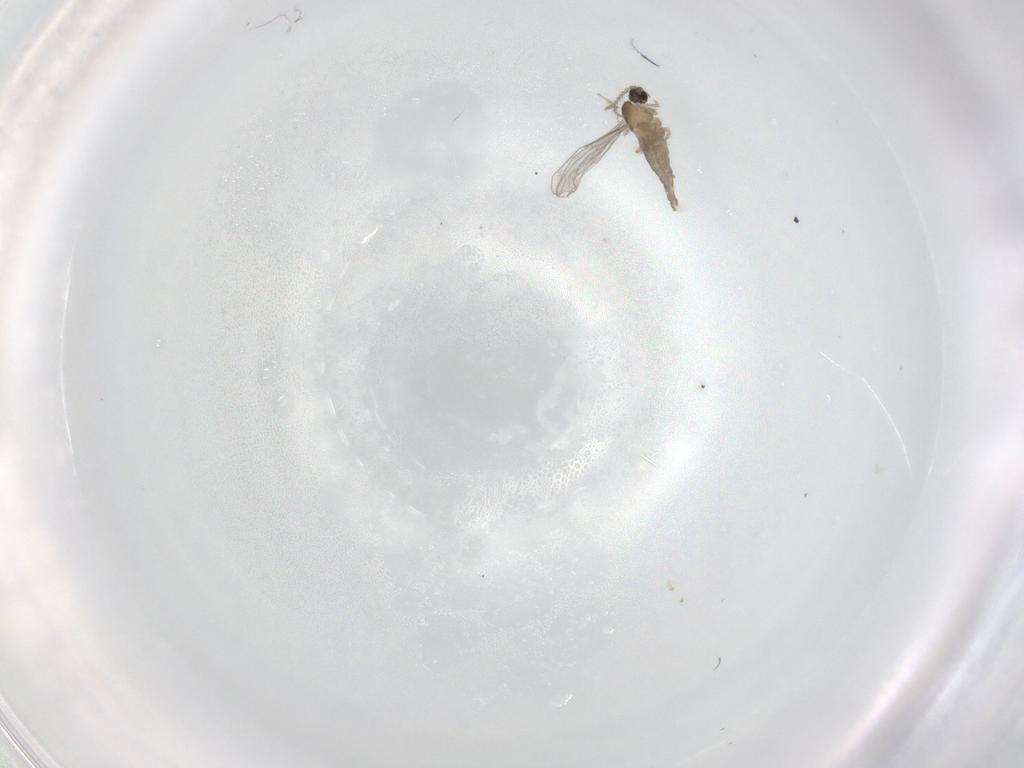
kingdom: Animalia
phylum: Arthropoda
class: Insecta
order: Diptera
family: Cecidomyiidae
